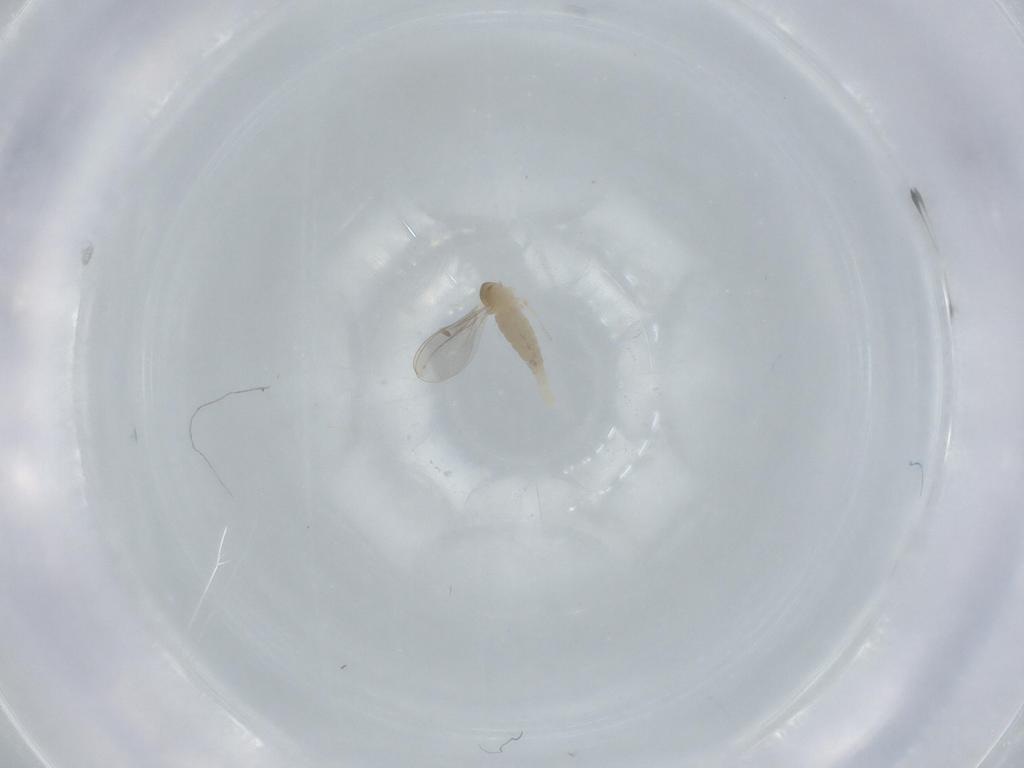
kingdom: Animalia
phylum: Arthropoda
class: Insecta
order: Diptera
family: Cecidomyiidae
